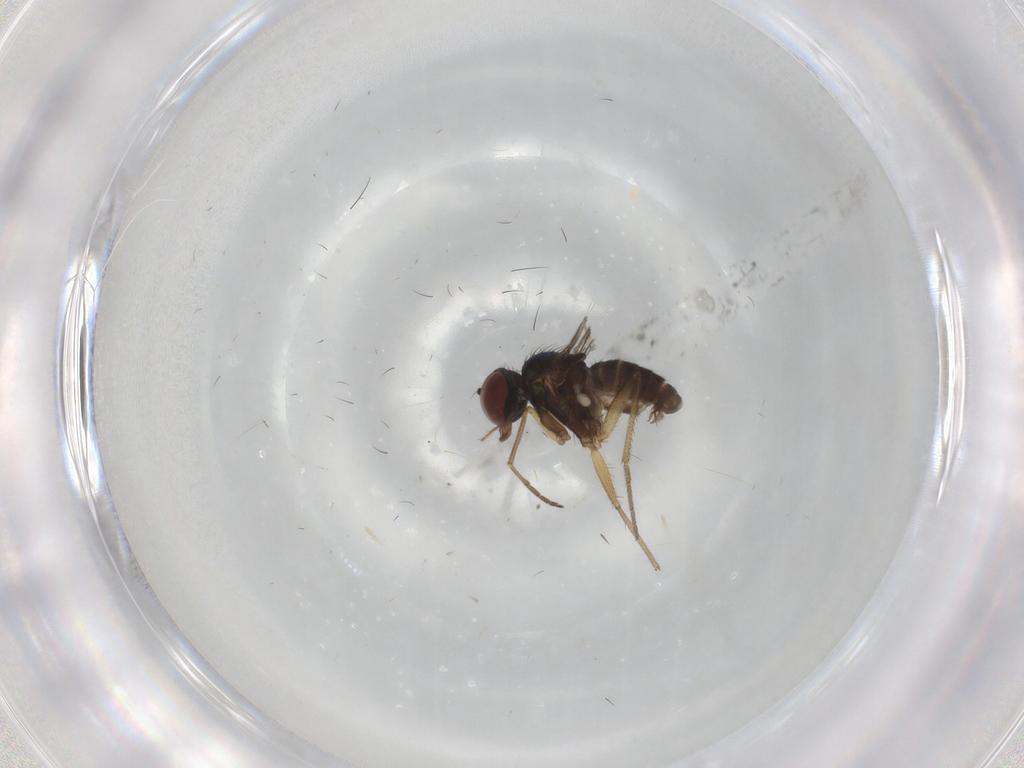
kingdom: Animalia
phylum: Arthropoda
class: Insecta
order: Diptera
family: Dolichopodidae
